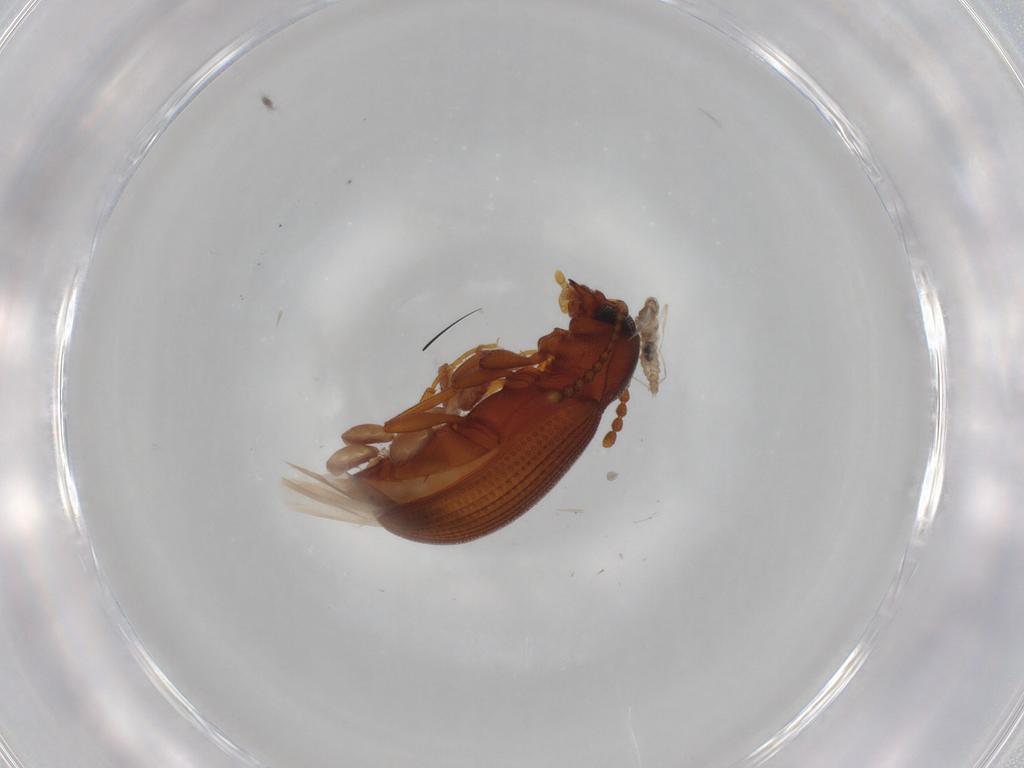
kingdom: Animalia
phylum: Arthropoda
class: Insecta
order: Diptera
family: Cecidomyiidae
